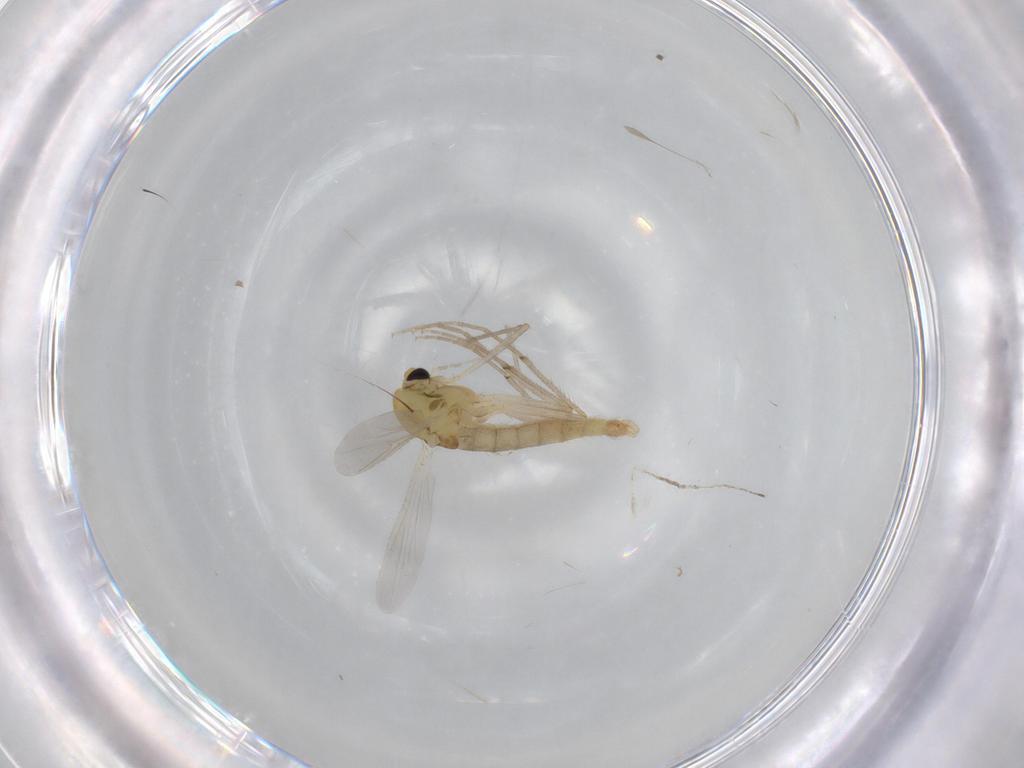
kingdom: Animalia
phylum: Arthropoda
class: Insecta
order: Diptera
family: Cecidomyiidae
